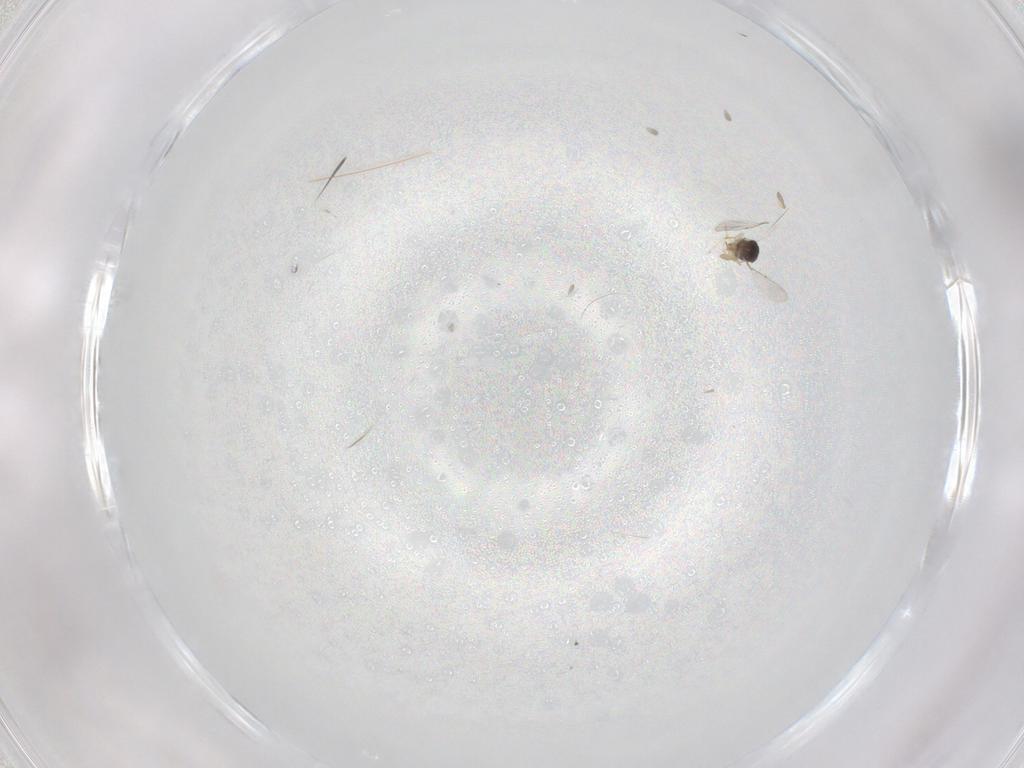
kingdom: Animalia
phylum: Arthropoda
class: Insecta
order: Hymenoptera
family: Encyrtidae
